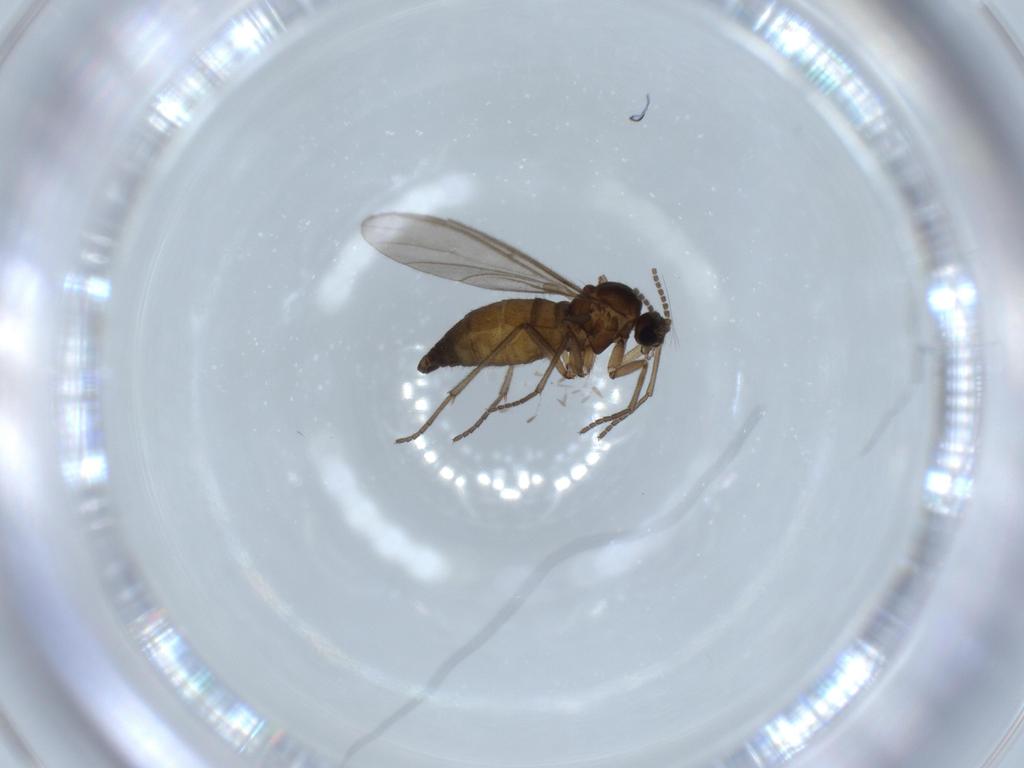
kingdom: Animalia
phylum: Arthropoda
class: Insecta
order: Diptera
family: Sciaridae
